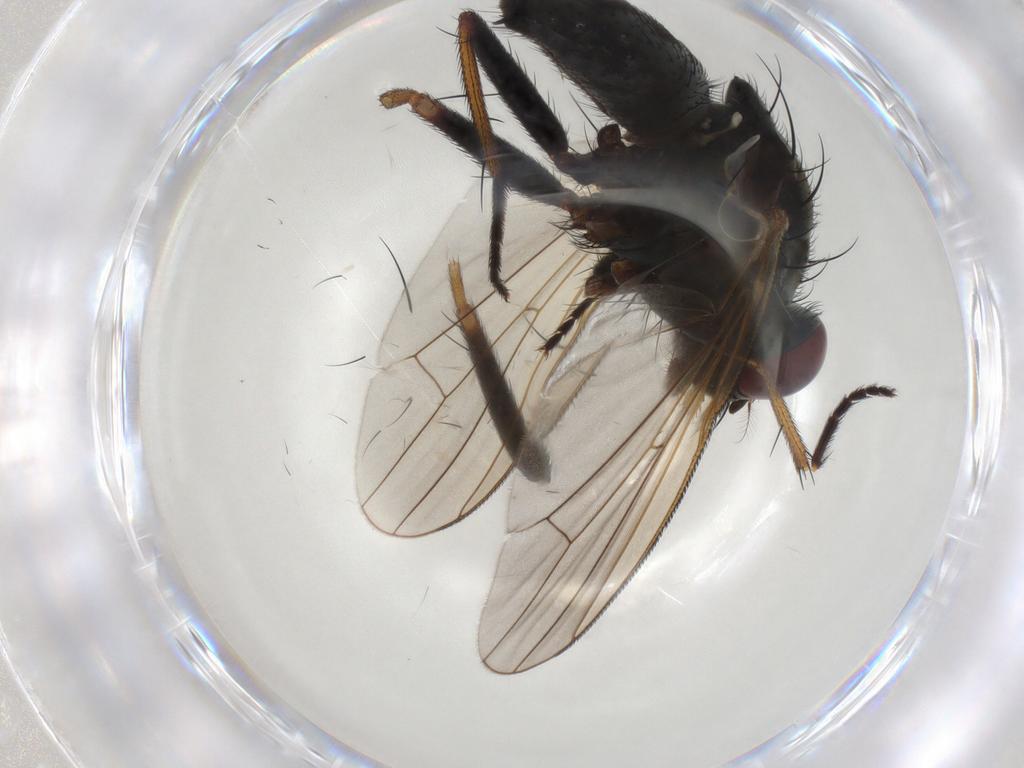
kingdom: Animalia
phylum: Arthropoda
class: Insecta
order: Diptera
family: Muscidae
